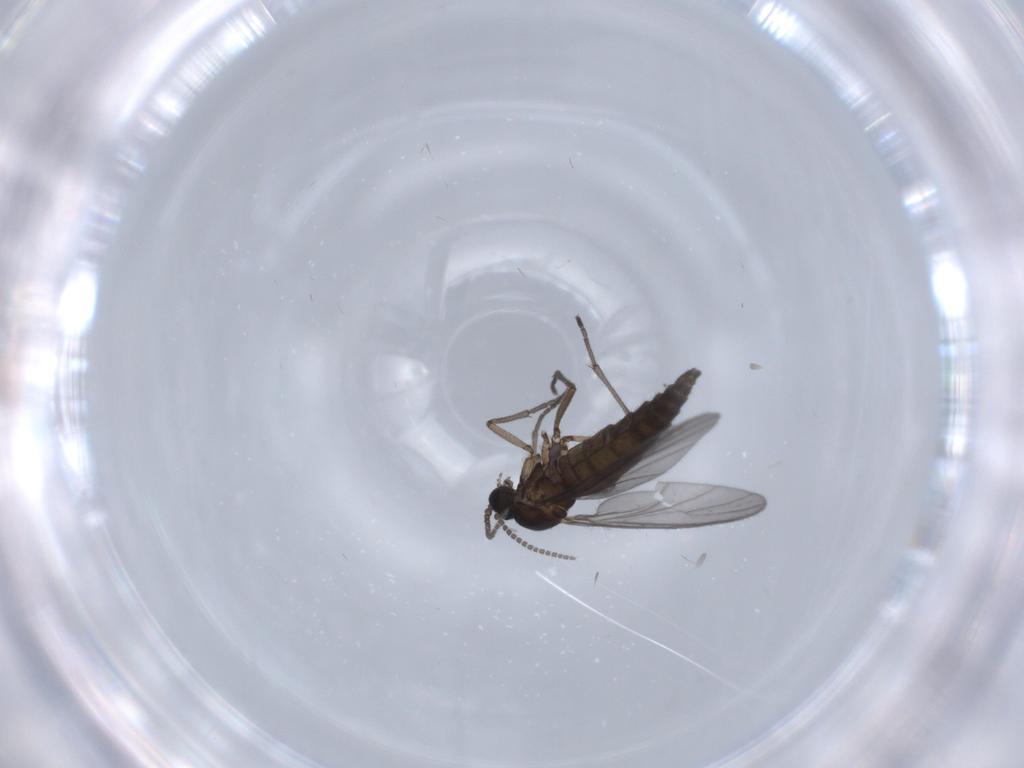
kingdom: Animalia
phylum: Arthropoda
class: Insecta
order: Diptera
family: Sciaridae
